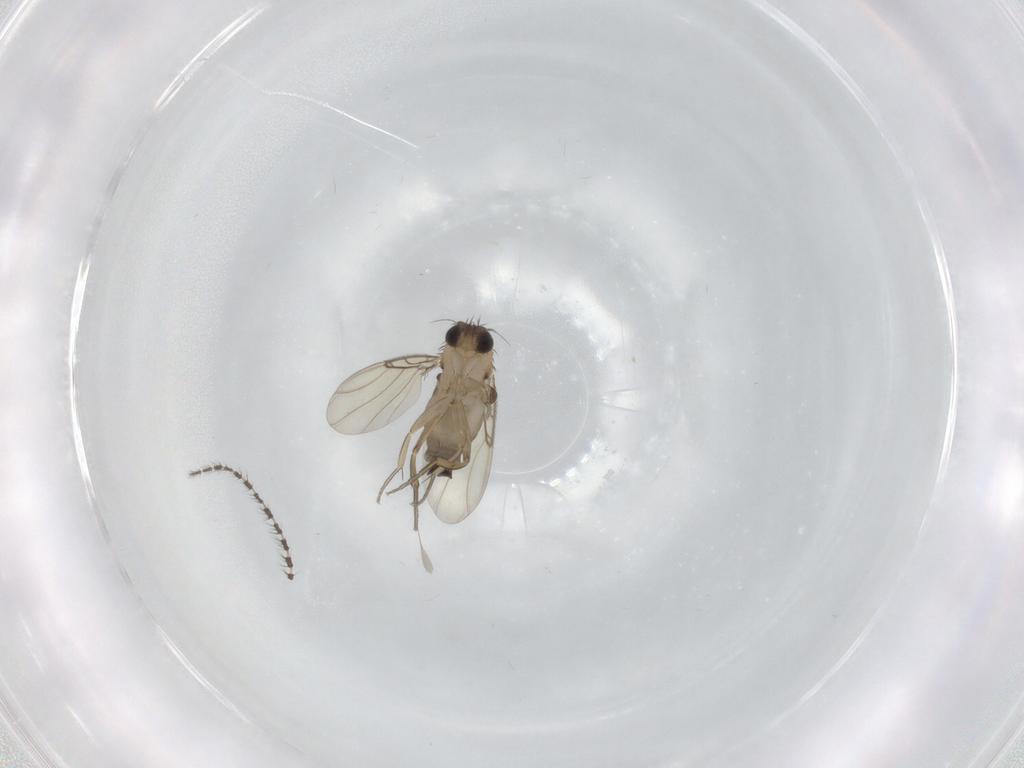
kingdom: Animalia
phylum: Arthropoda
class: Insecta
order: Diptera
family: Phoridae
